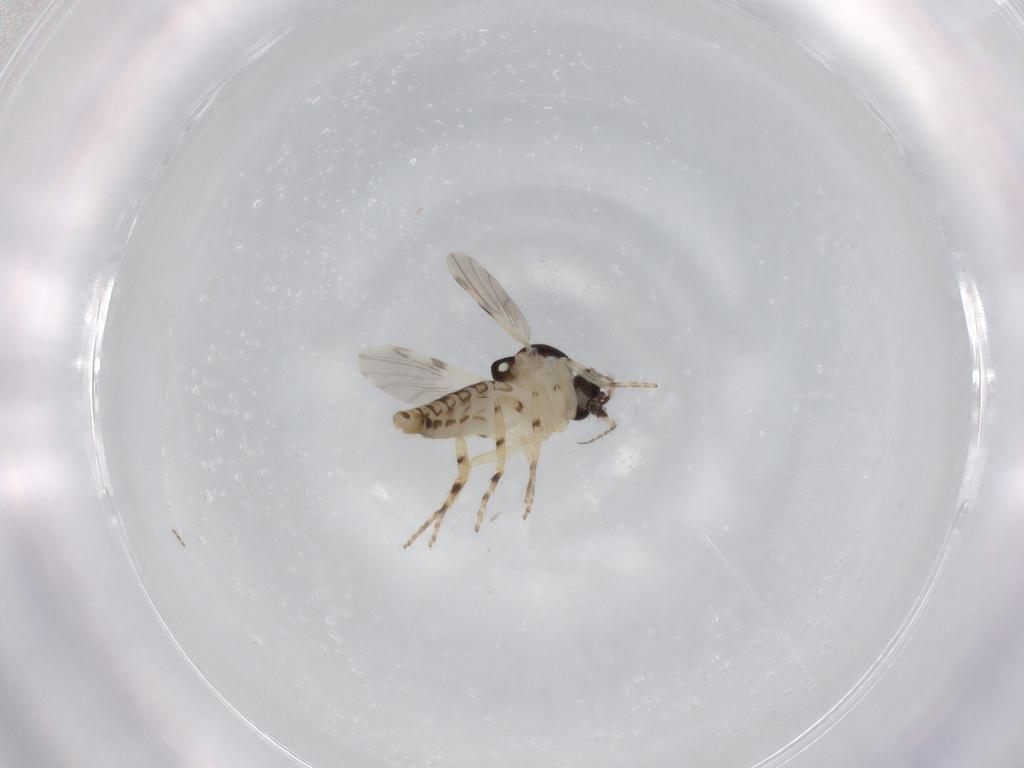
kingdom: Animalia
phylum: Arthropoda
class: Insecta
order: Diptera
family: Ceratopogonidae
